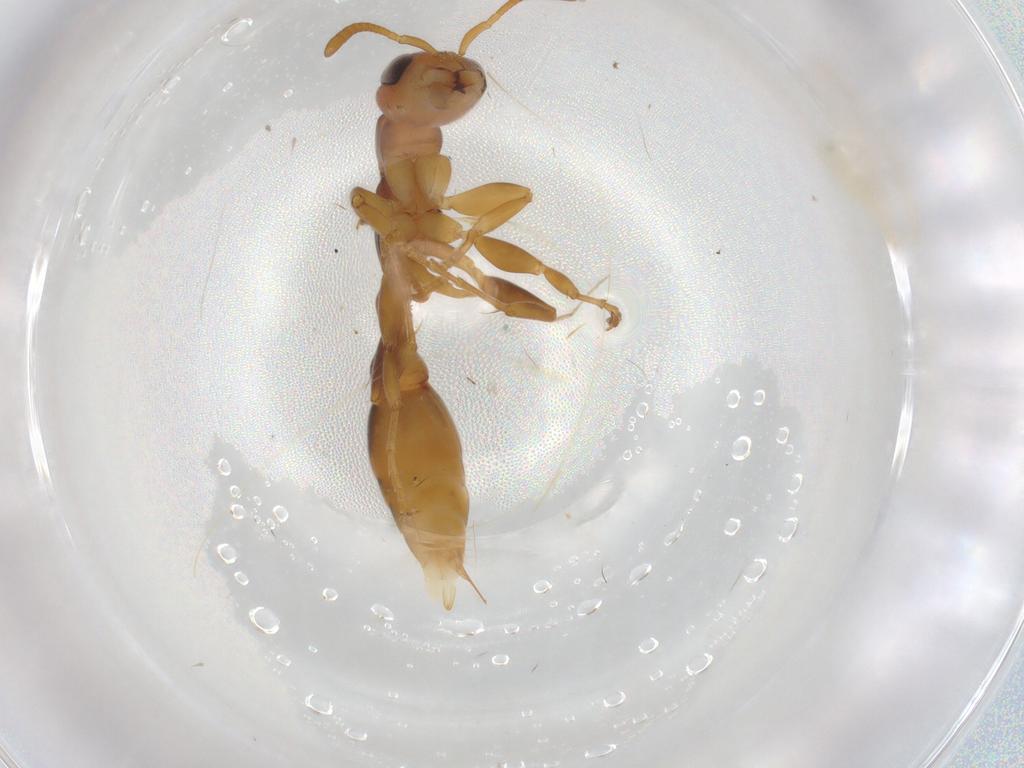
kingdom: Animalia
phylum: Arthropoda
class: Insecta
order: Hymenoptera
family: Formicidae
